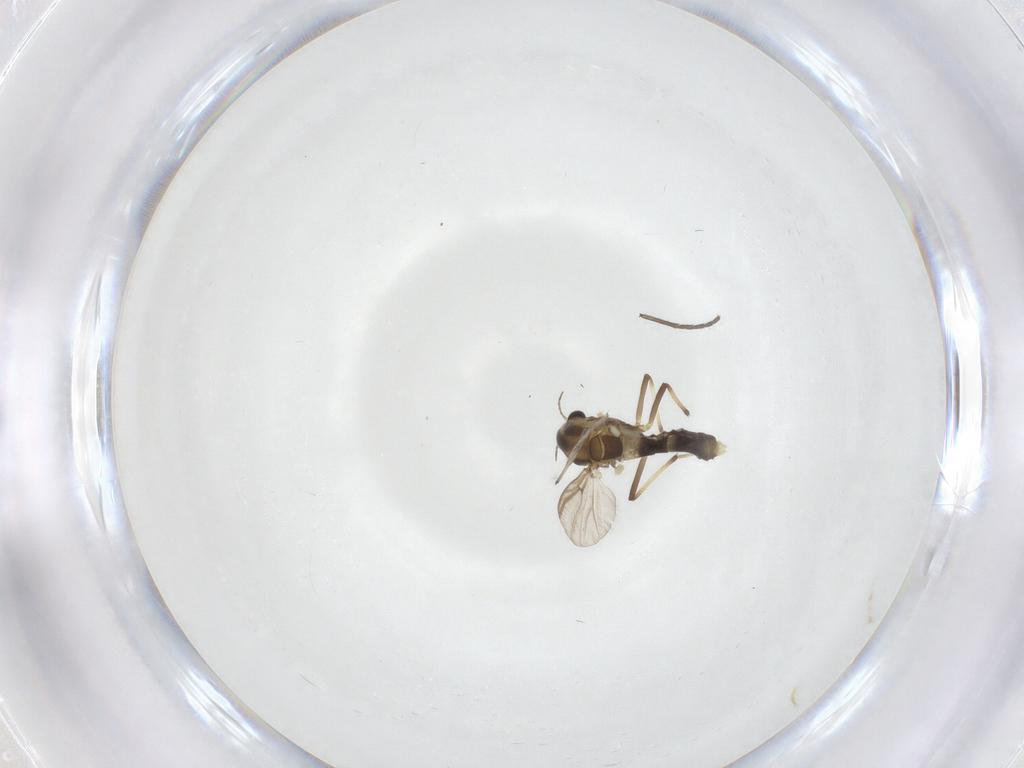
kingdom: Animalia
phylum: Arthropoda
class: Insecta
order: Diptera
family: Chironomidae
